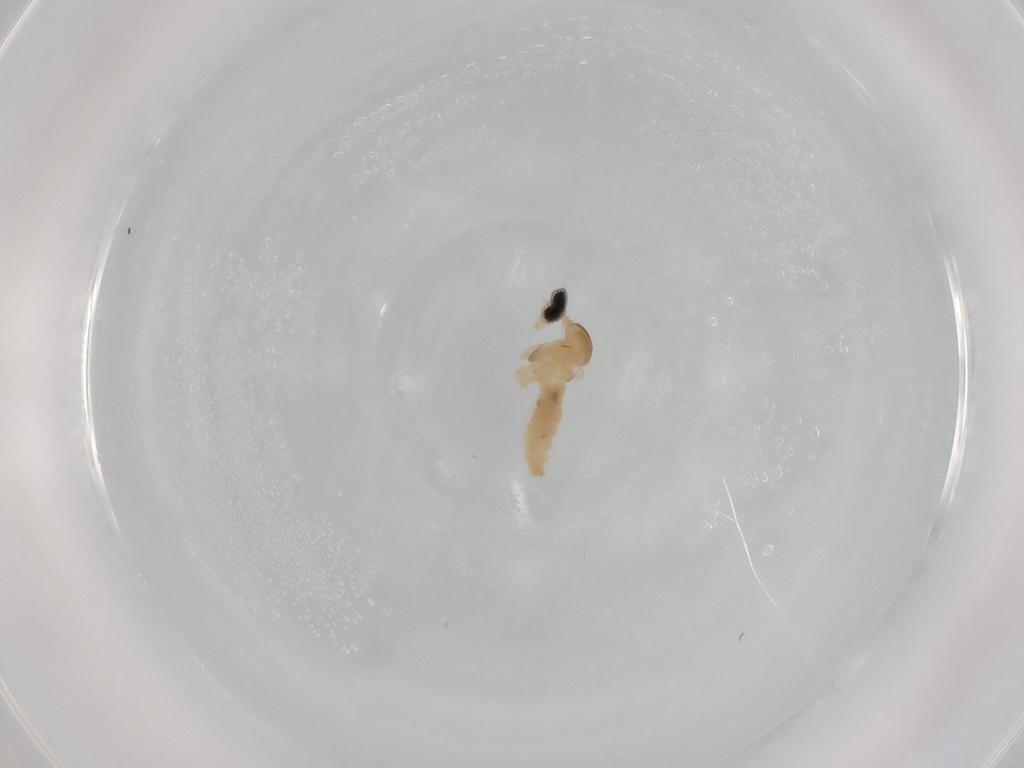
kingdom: Animalia
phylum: Arthropoda
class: Insecta
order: Diptera
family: Cecidomyiidae
